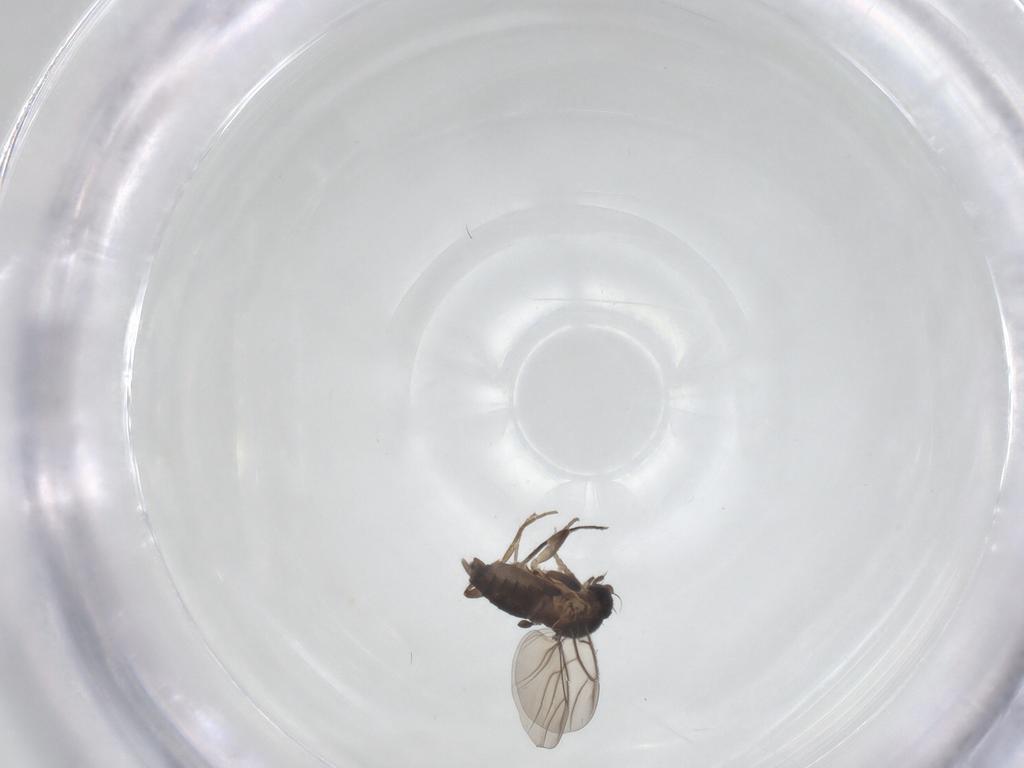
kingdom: Animalia
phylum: Arthropoda
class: Insecta
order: Diptera
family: Phoridae
